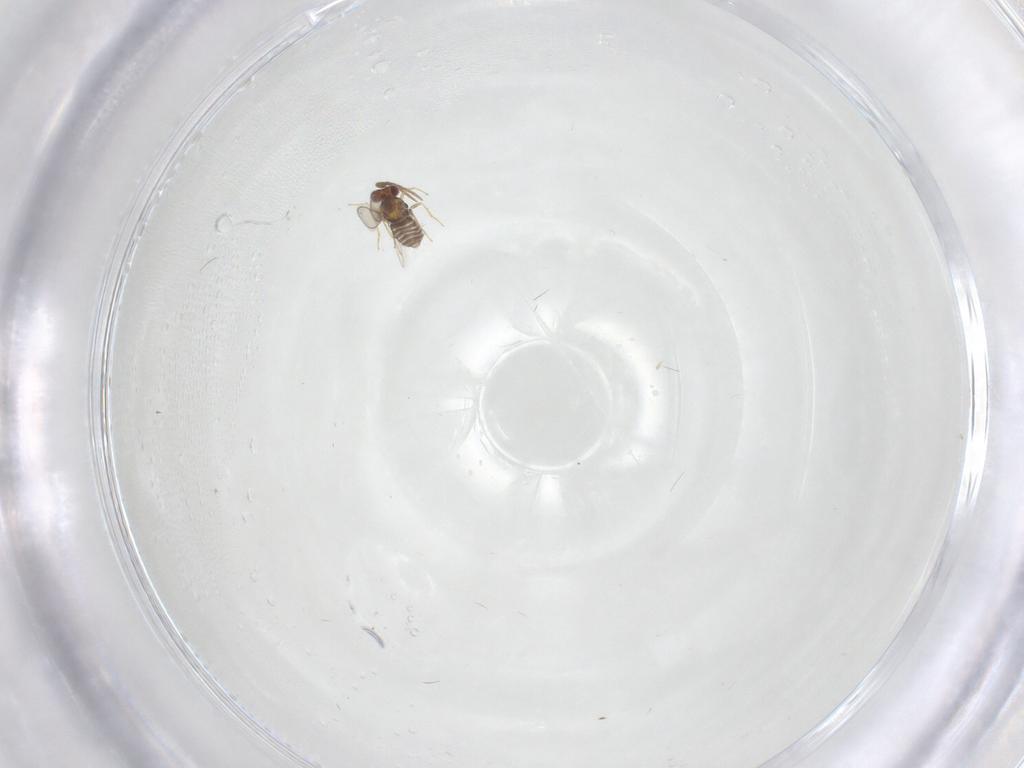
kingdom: Animalia
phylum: Arthropoda
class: Insecta
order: Hymenoptera
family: Aphelinidae
